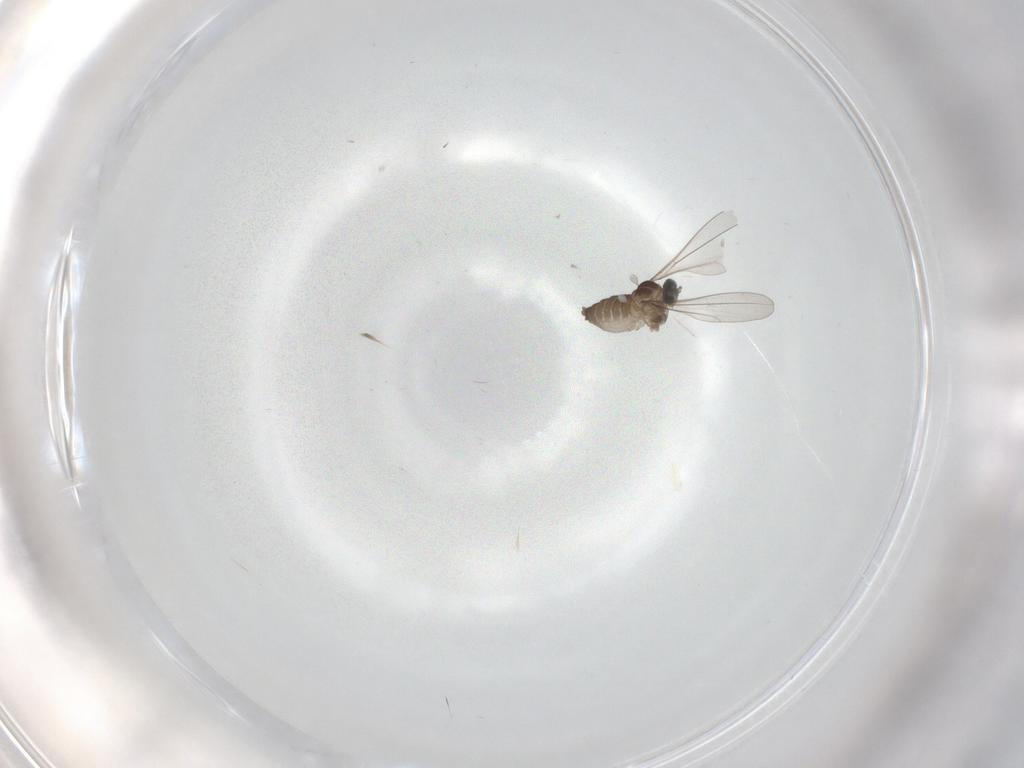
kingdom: Animalia
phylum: Arthropoda
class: Insecta
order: Diptera
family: Cecidomyiidae
